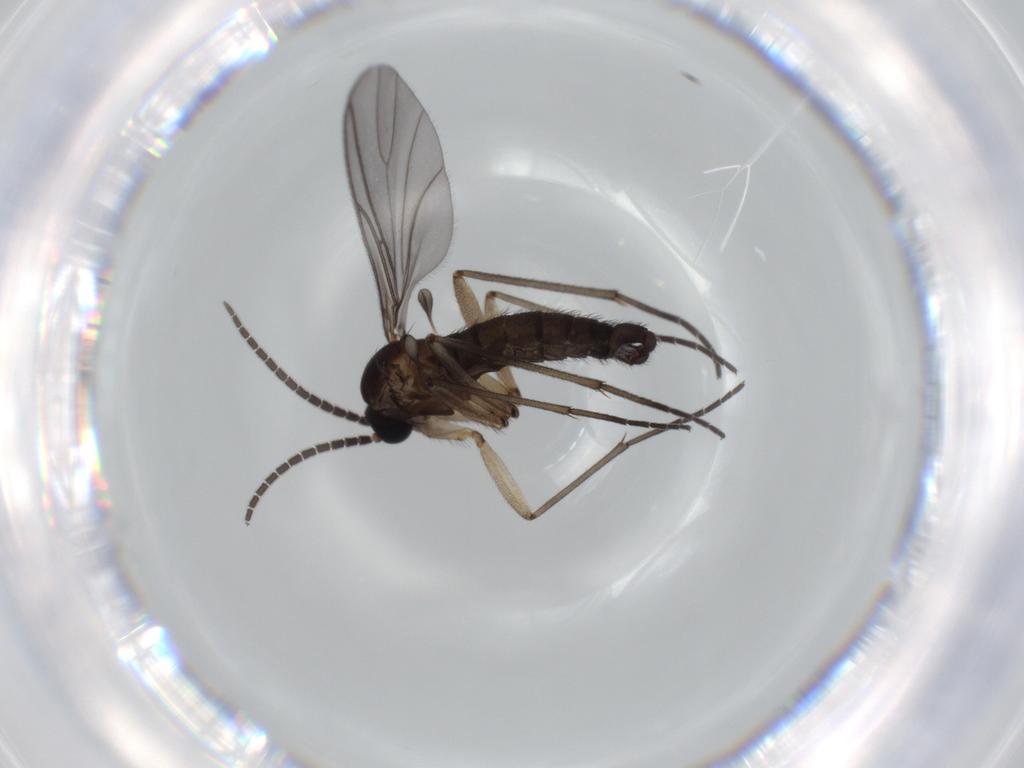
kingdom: Animalia
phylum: Arthropoda
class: Insecta
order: Diptera
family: Sciaridae
